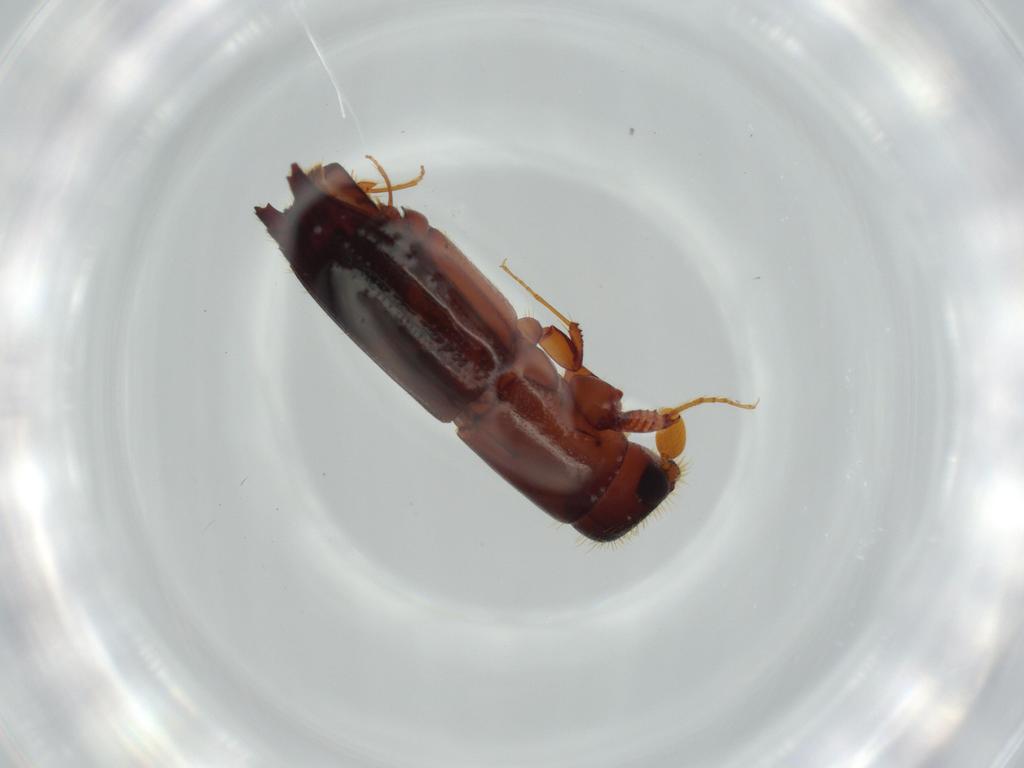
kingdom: Animalia
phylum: Arthropoda
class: Insecta
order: Coleoptera
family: Curculionidae
